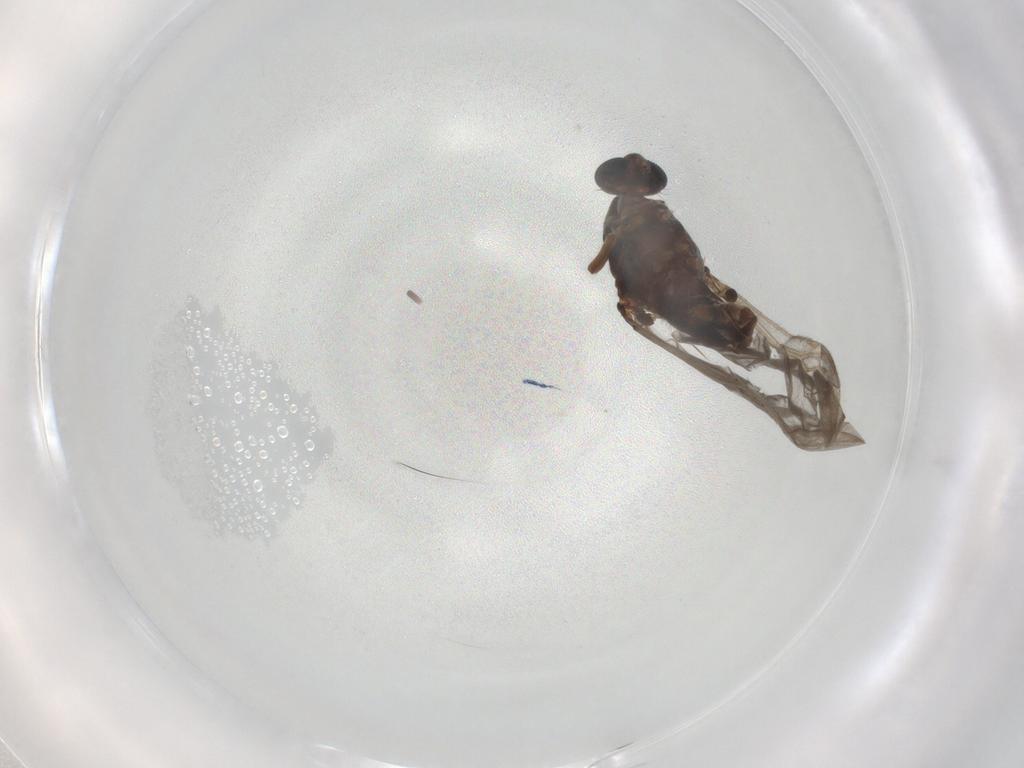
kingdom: Animalia
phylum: Arthropoda
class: Insecta
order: Diptera
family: Ceratopogonidae
